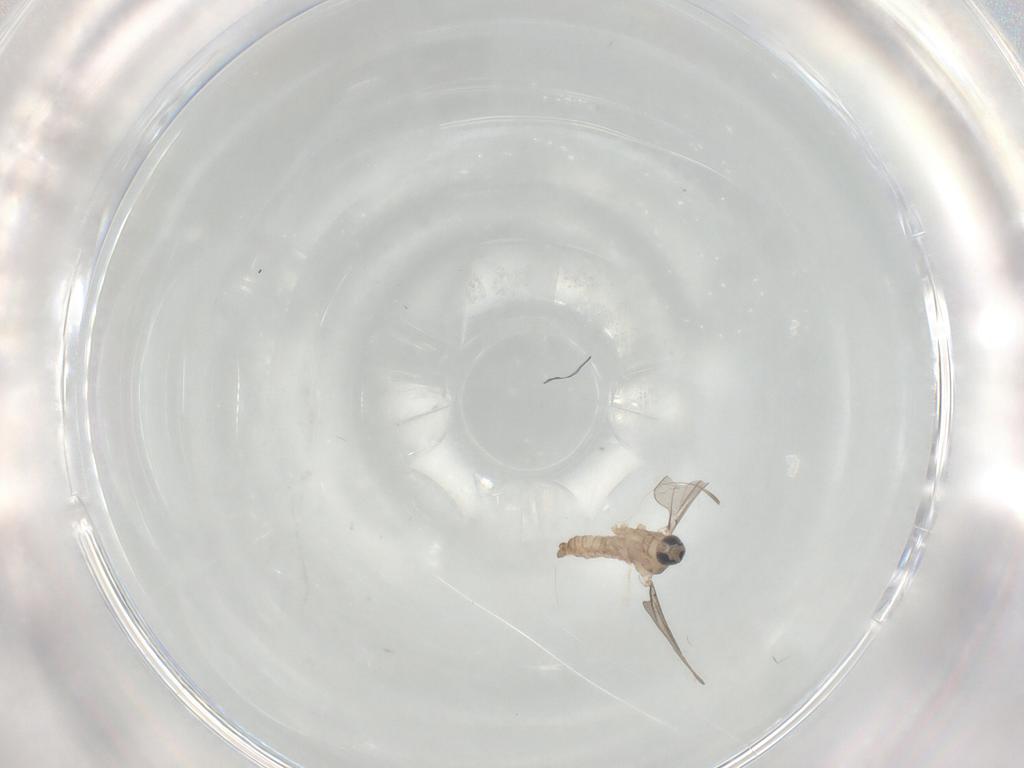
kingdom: Animalia
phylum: Arthropoda
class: Insecta
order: Diptera
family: Cecidomyiidae
